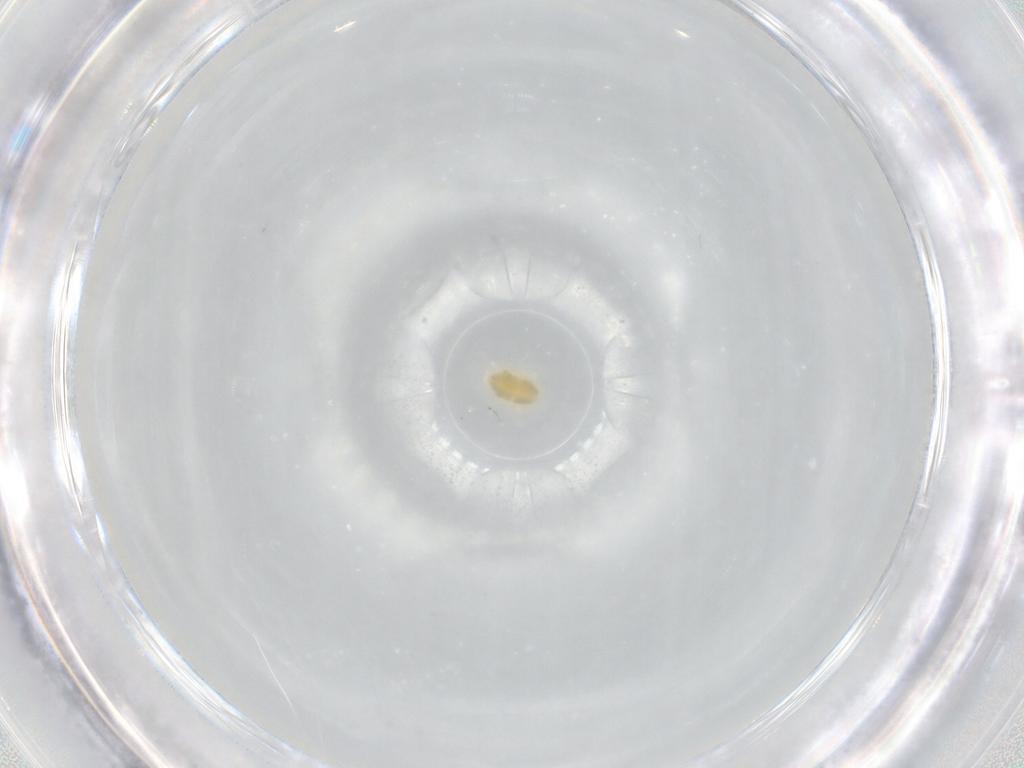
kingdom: Animalia
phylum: Arthropoda
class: Arachnida
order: Trombidiformes
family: Eupodidae
